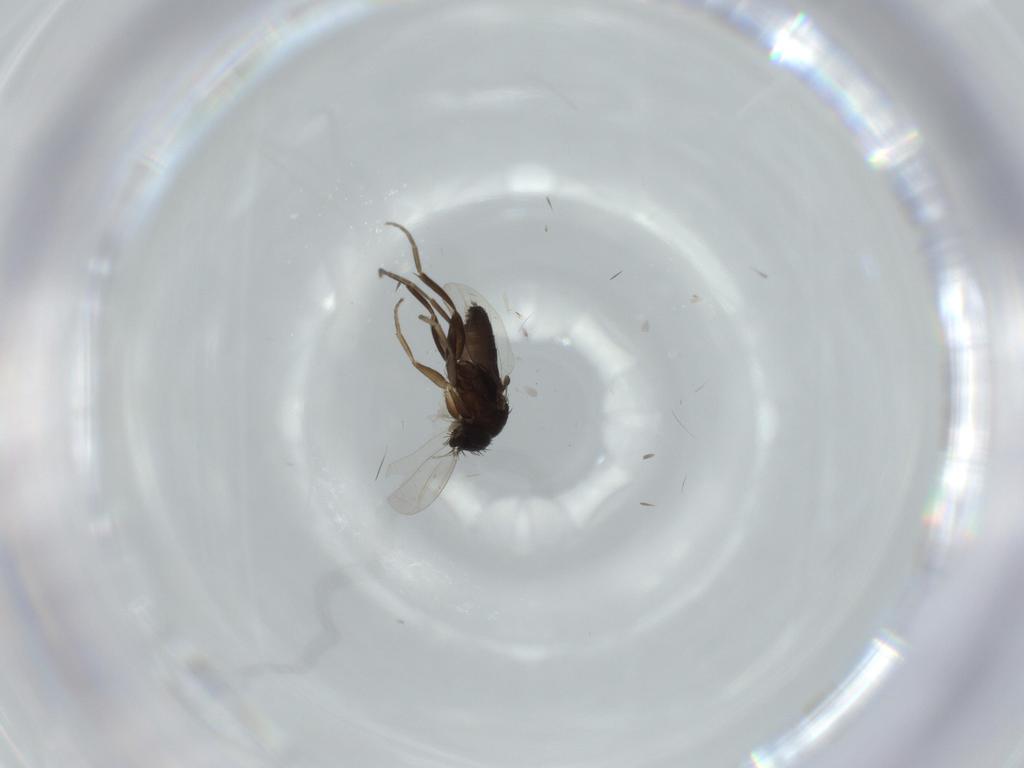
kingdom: Animalia
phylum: Arthropoda
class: Insecta
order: Diptera
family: Phoridae
